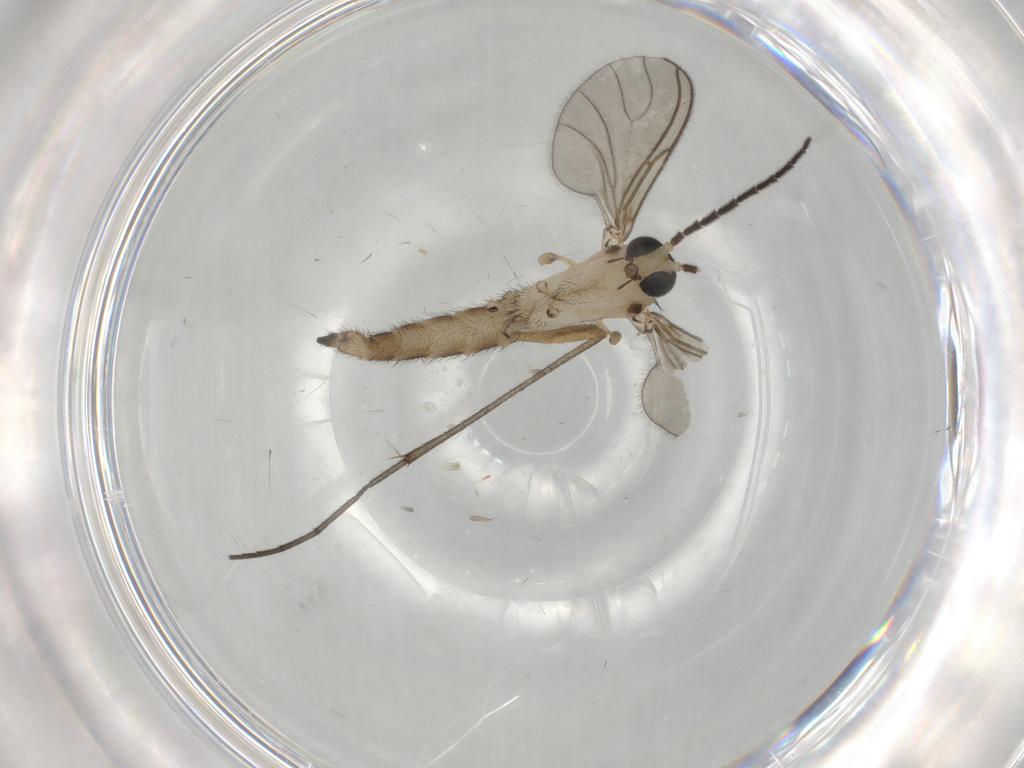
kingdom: Animalia
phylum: Arthropoda
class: Insecta
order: Diptera
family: Sciaridae
